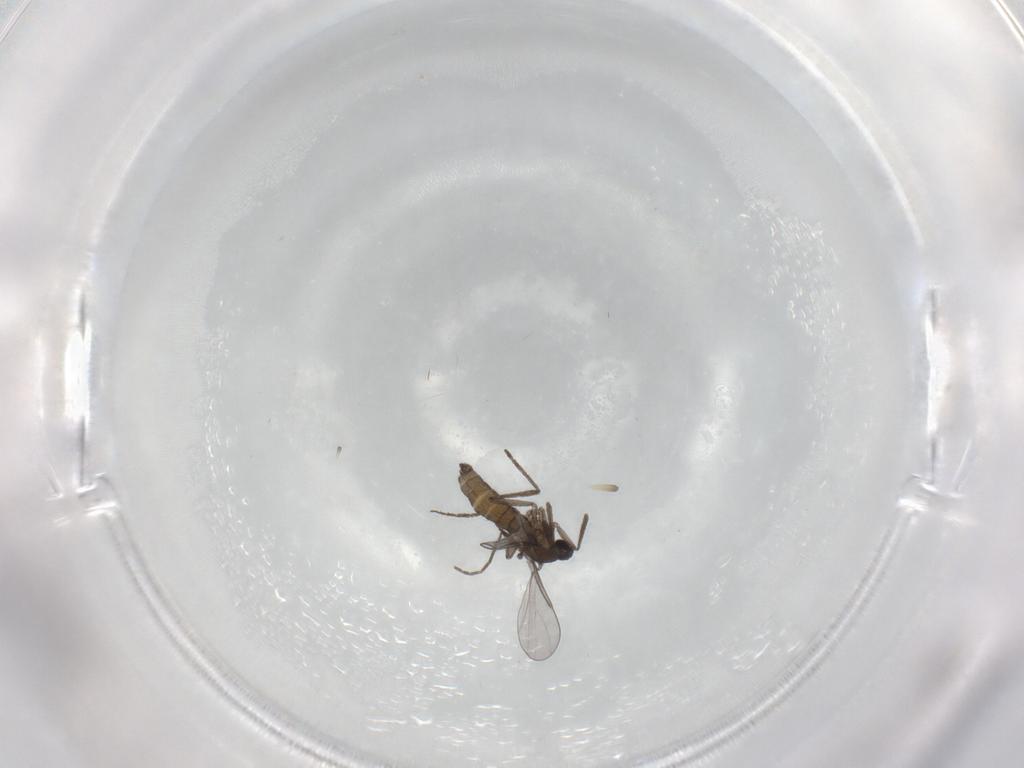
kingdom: Animalia
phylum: Arthropoda
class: Insecta
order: Diptera
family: Cecidomyiidae
